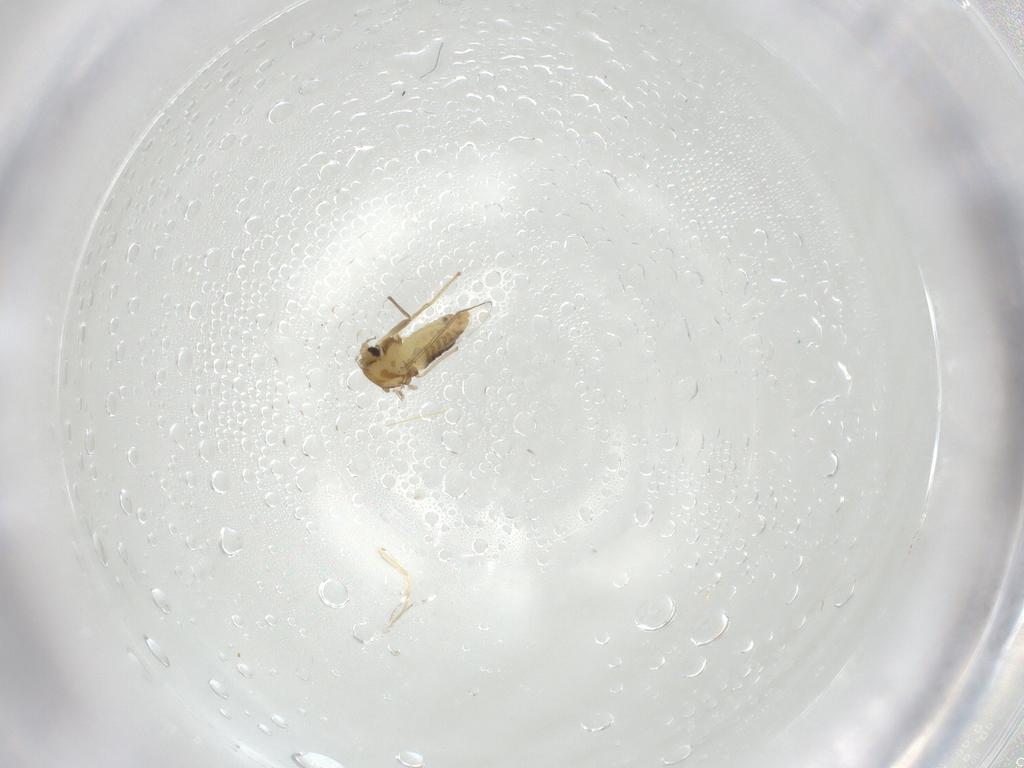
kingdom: Animalia
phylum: Arthropoda
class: Insecta
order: Diptera
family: Chironomidae
